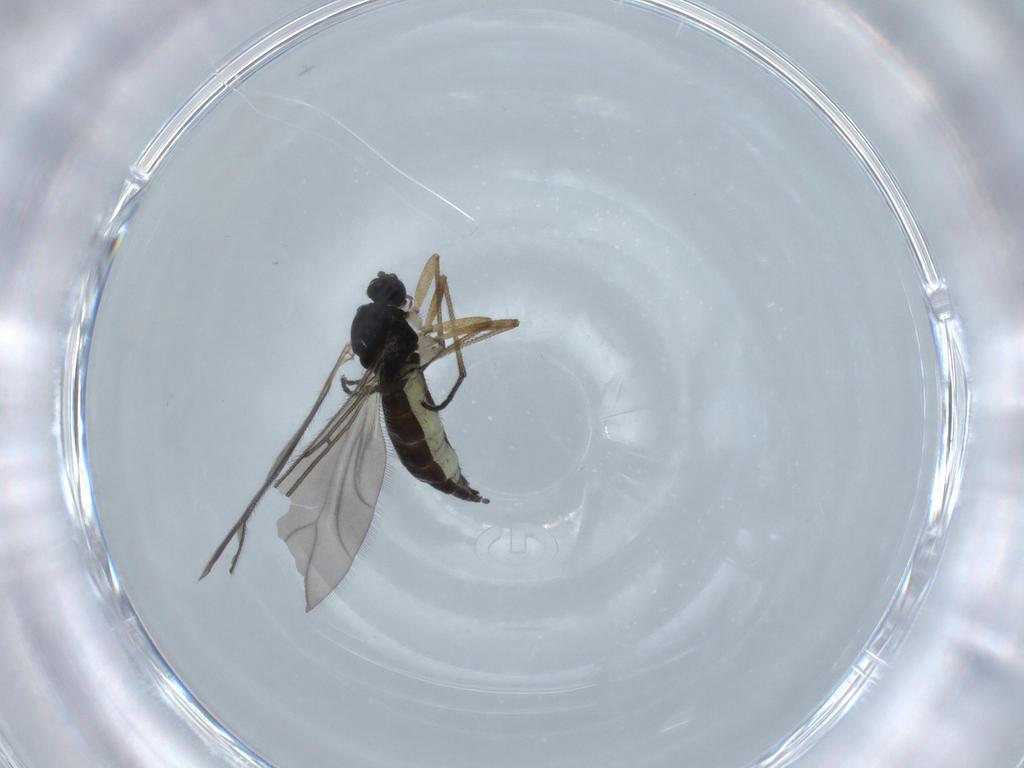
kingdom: Animalia
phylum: Arthropoda
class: Insecta
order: Diptera
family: Sciaridae
